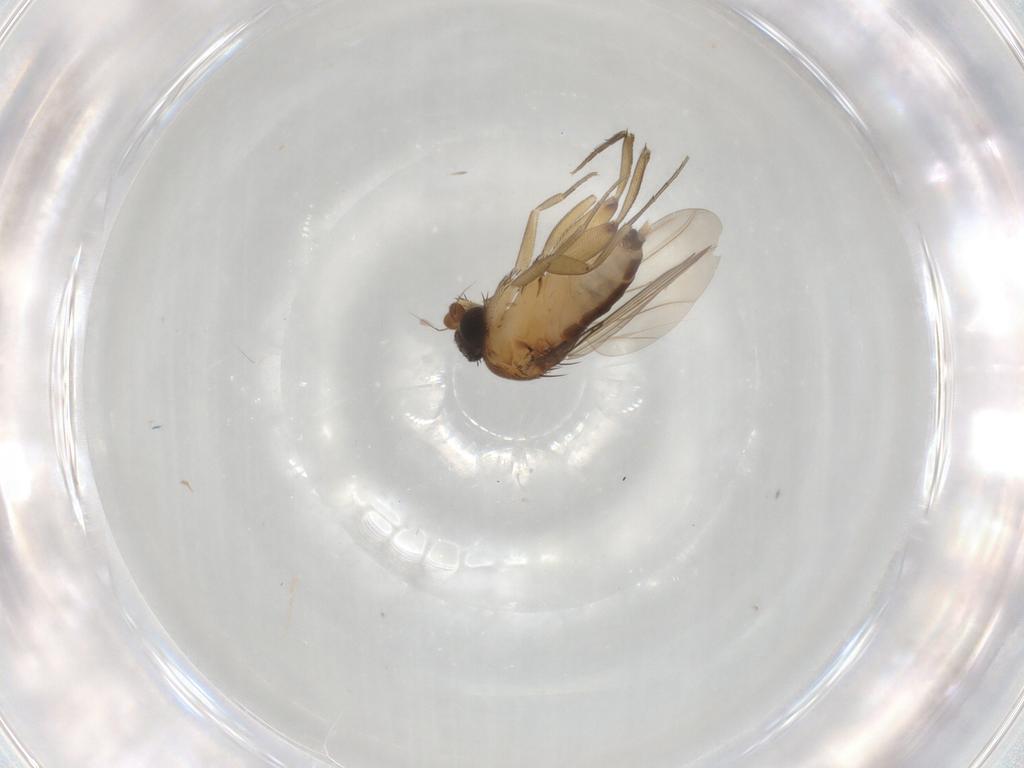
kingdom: Animalia
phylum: Arthropoda
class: Insecta
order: Diptera
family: Phoridae
